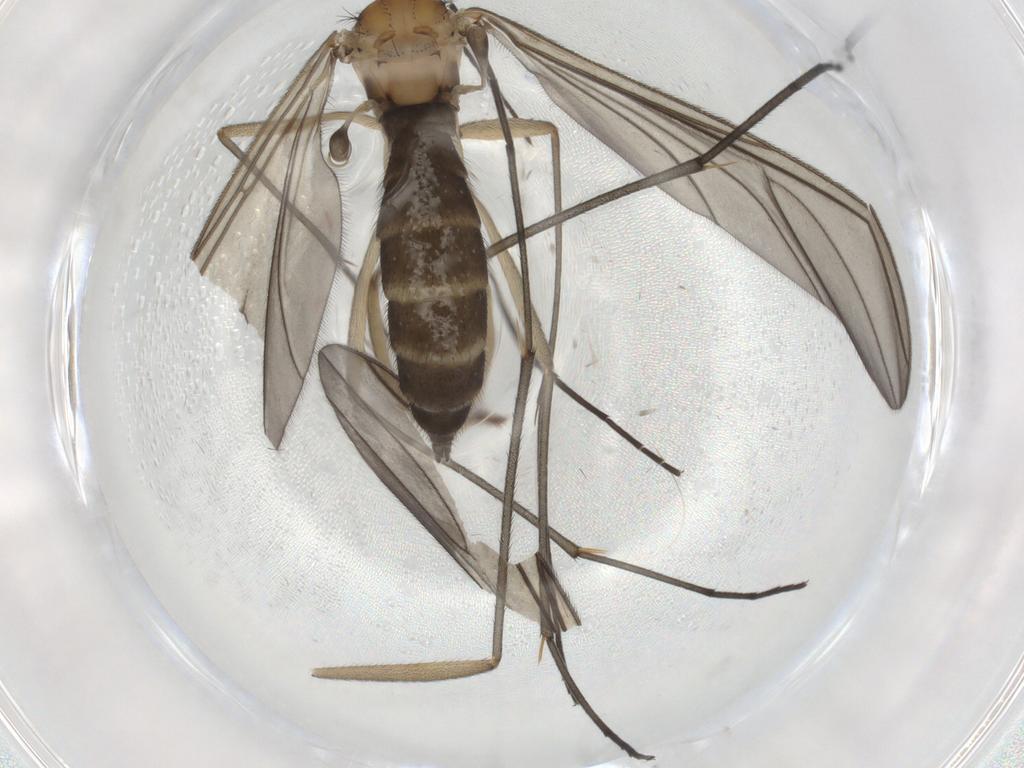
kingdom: Animalia
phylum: Arthropoda
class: Insecta
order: Diptera
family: Sciaridae
